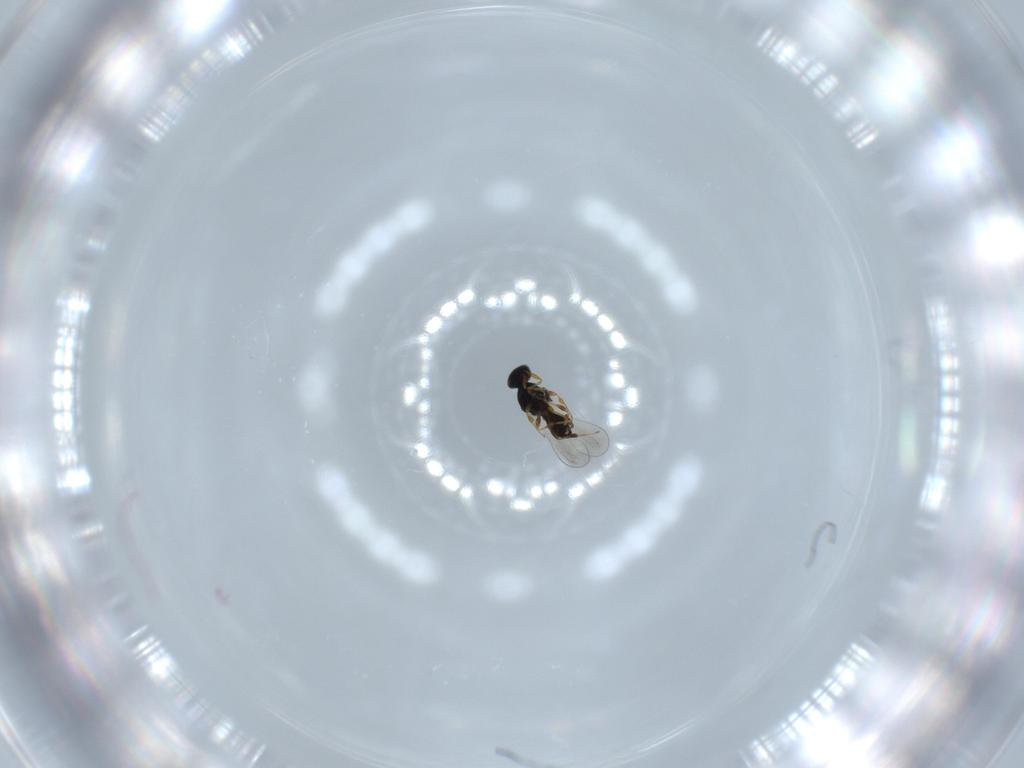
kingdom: Animalia
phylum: Arthropoda
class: Insecta
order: Hymenoptera
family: Platygastridae
